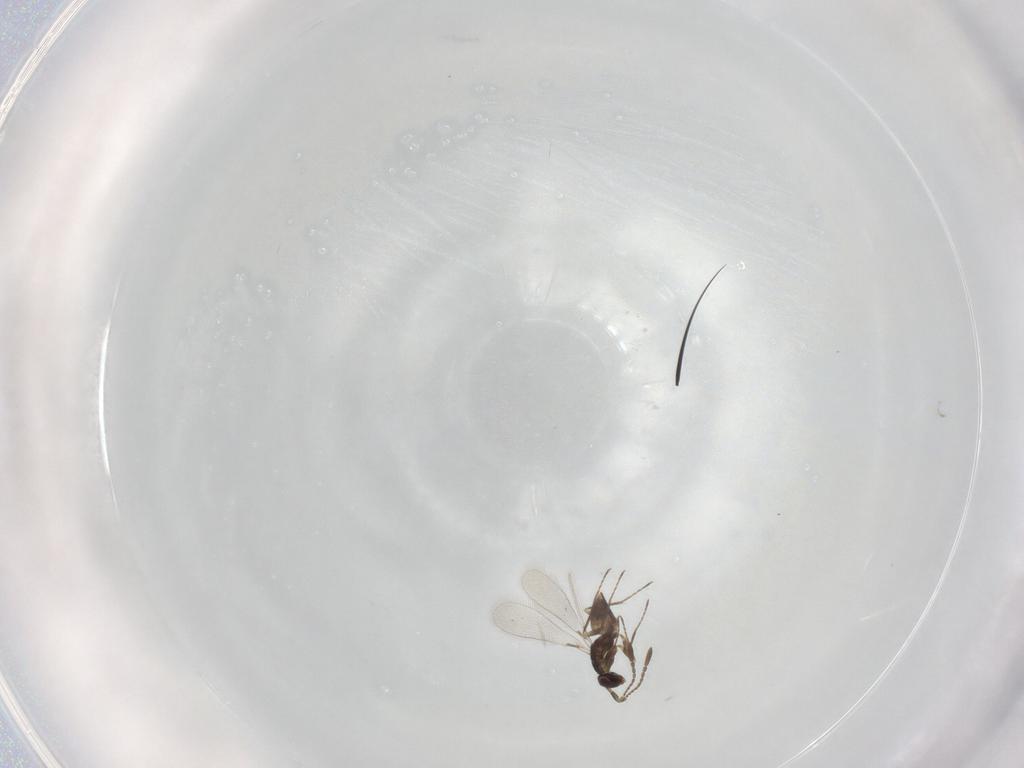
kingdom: Animalia
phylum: Arthropoda
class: Insecta
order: Hymenoptera
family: Mymaridae
